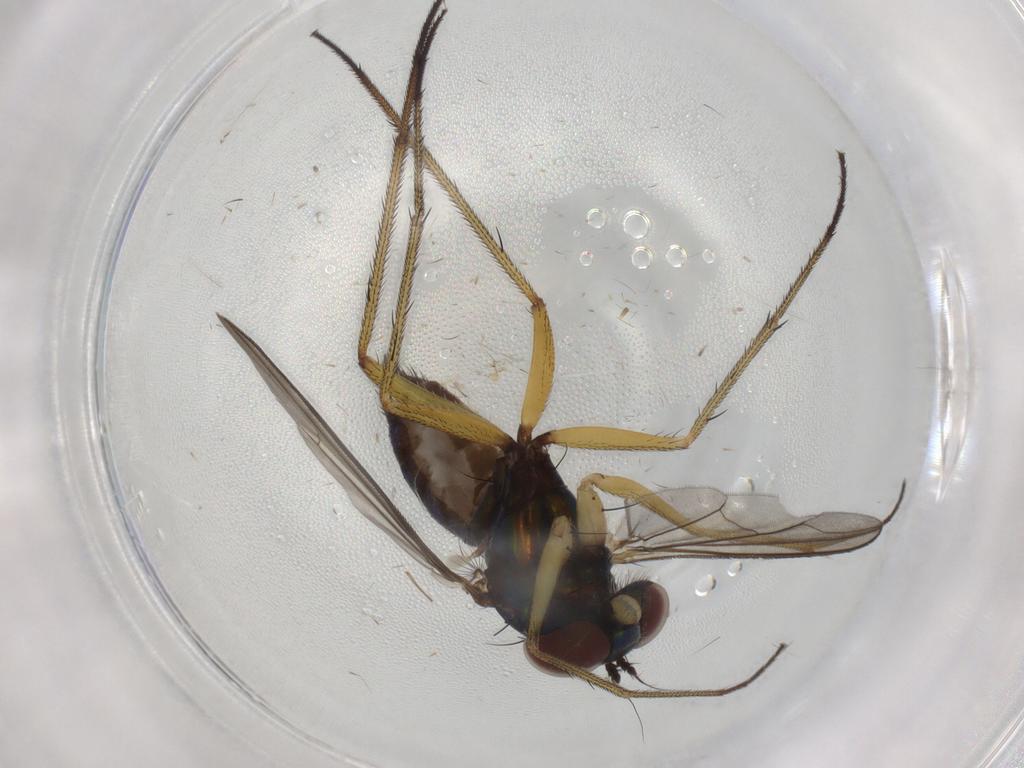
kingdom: Animalia
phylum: Arthropoda
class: Insecta
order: Diptera
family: Dolichopodidae
